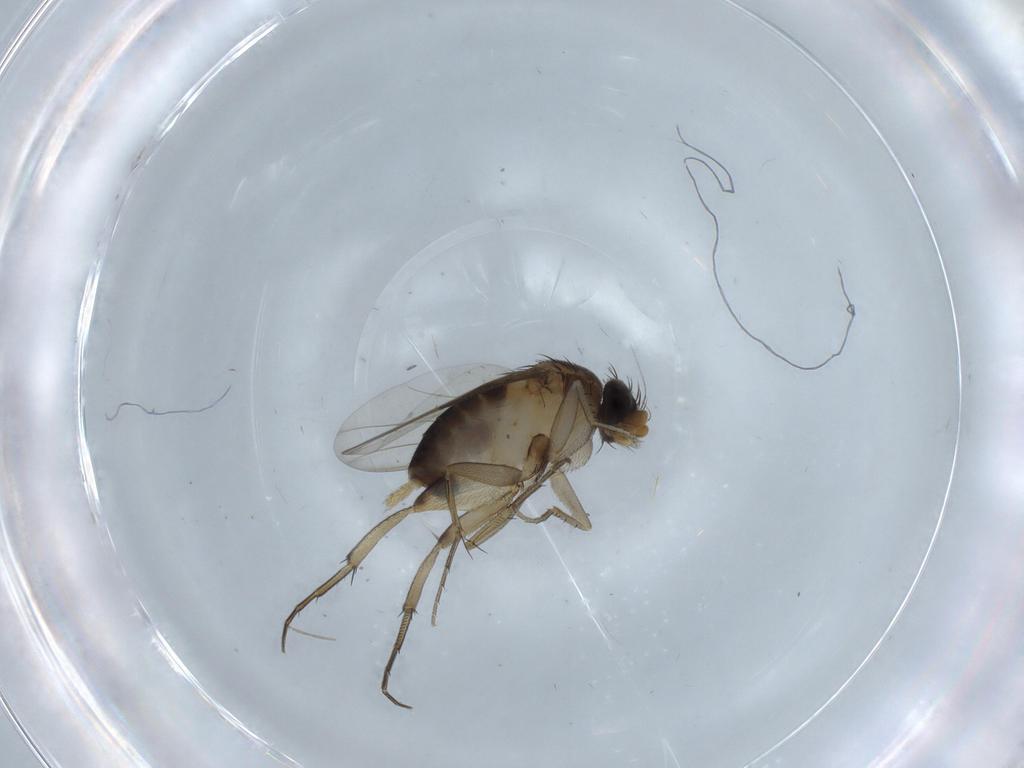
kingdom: Animalia
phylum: Arthropoda
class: Insecta
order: Diptera
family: Phoridae
